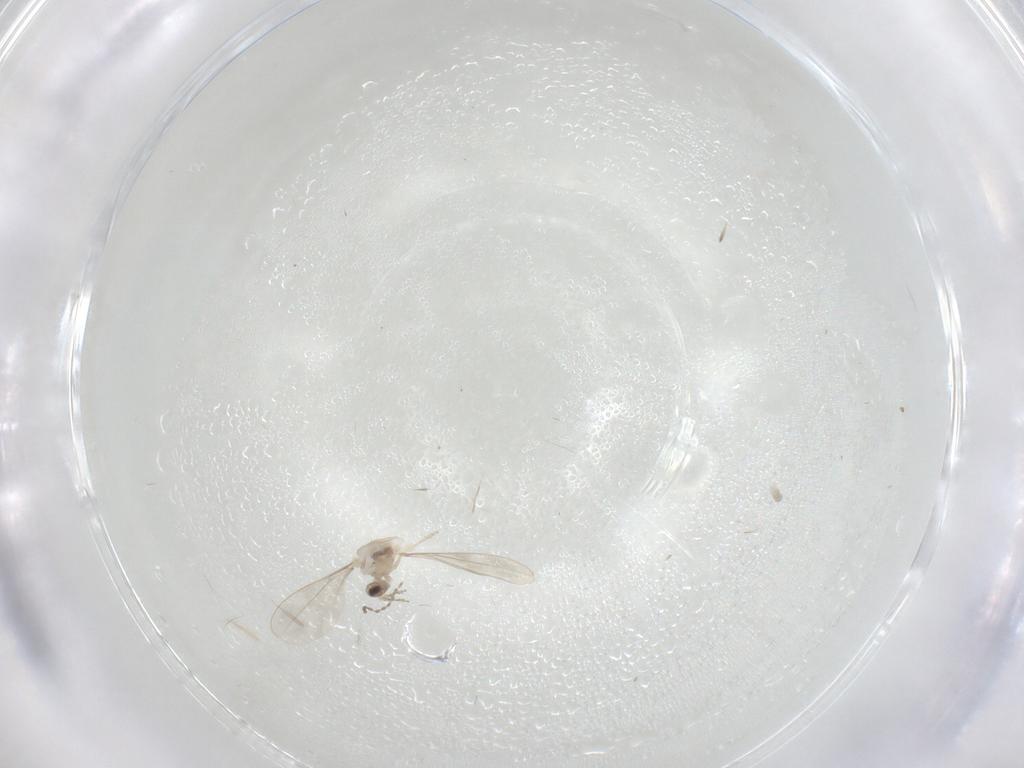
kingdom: Animalia
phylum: Arthropoda
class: Insecta
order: Diptera
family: Cecidomyiidae
